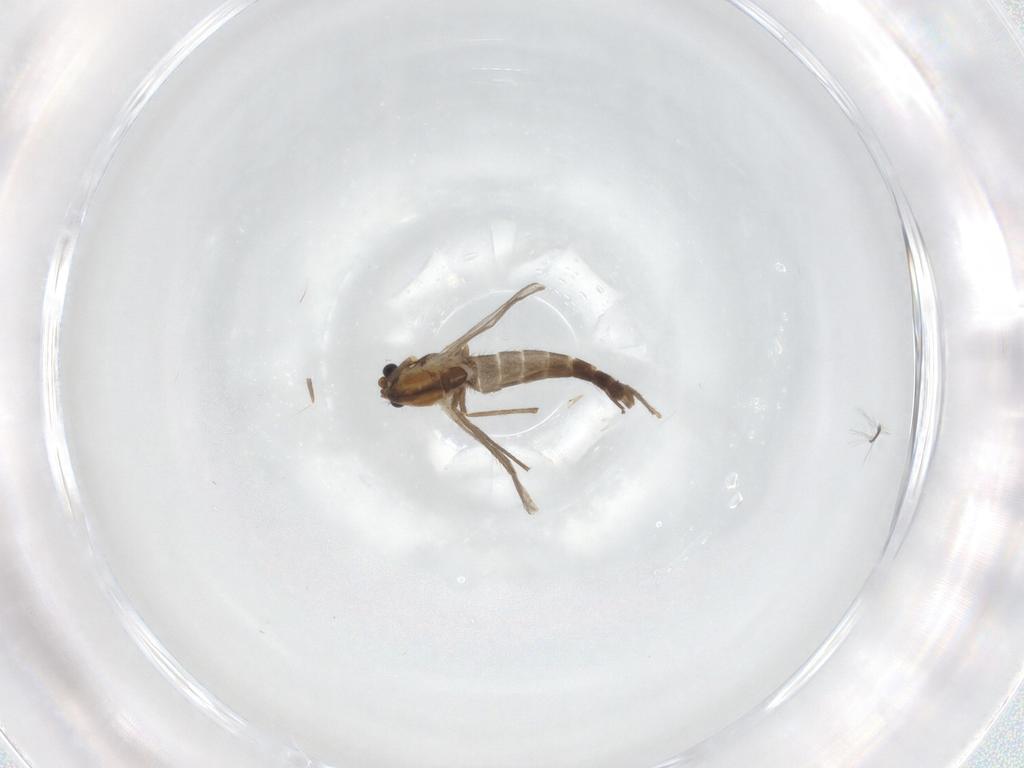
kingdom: Animalia
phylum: Arthropoda
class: Insecta
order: Diptera
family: Chironomidae
